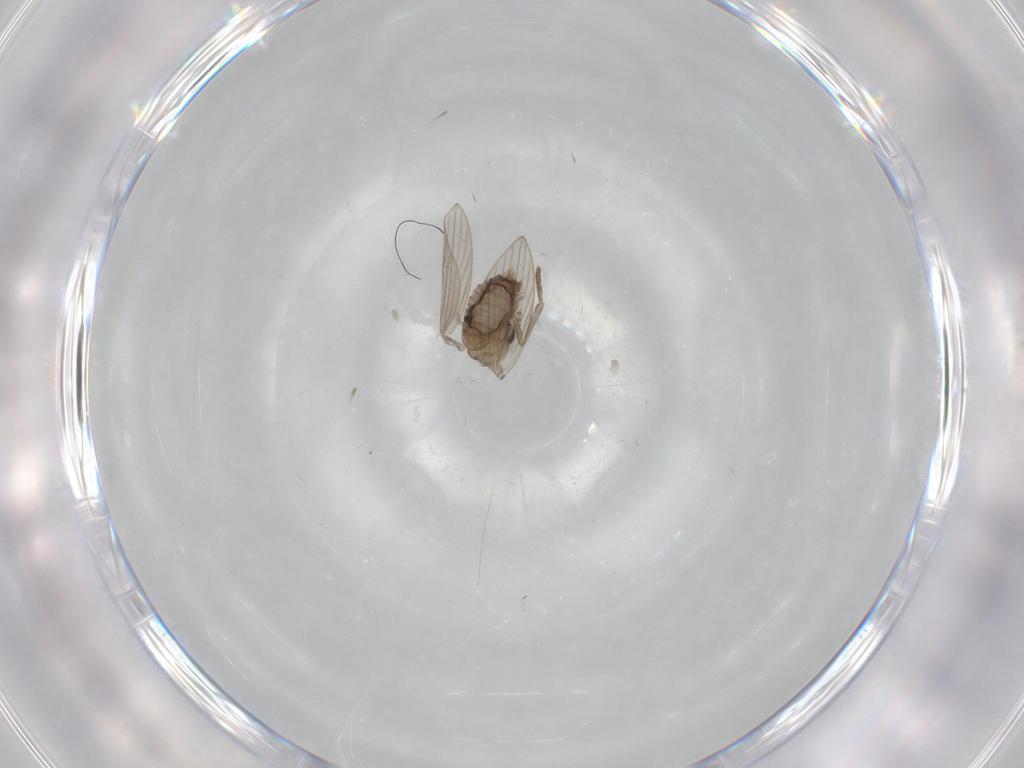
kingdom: Animalia
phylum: Arthropoda
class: Insecta
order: Diptera
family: Psychodidae
